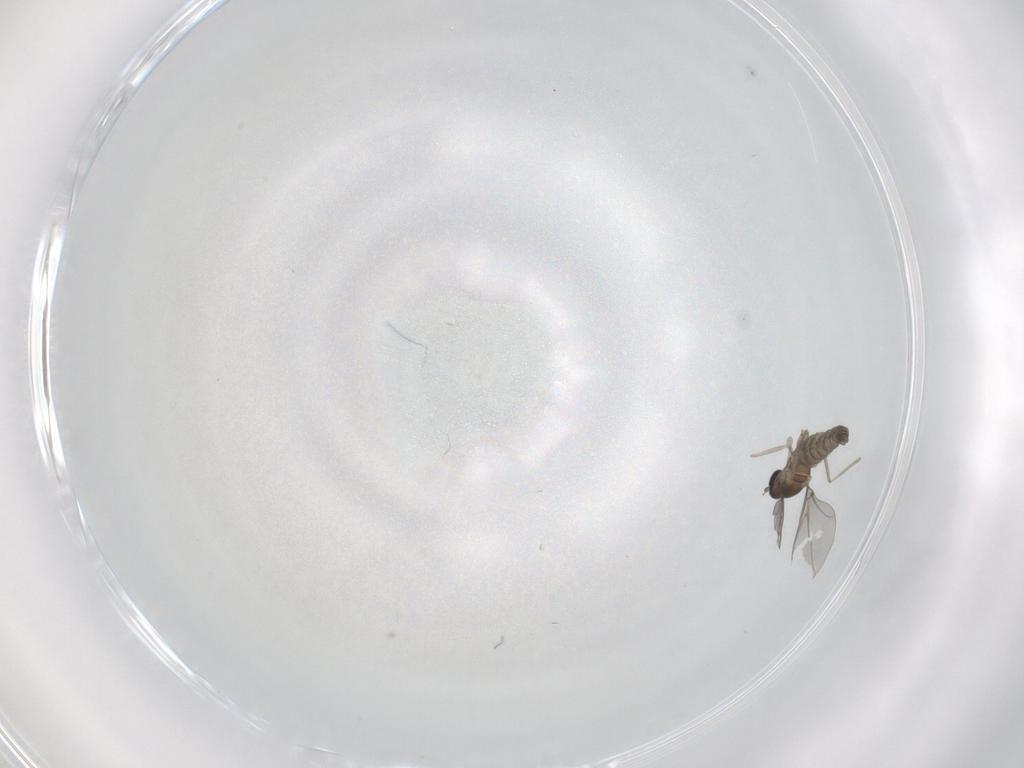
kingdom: Animalia
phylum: Arthropoda
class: Insecta
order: Diptera
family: Cecidomyiidae
